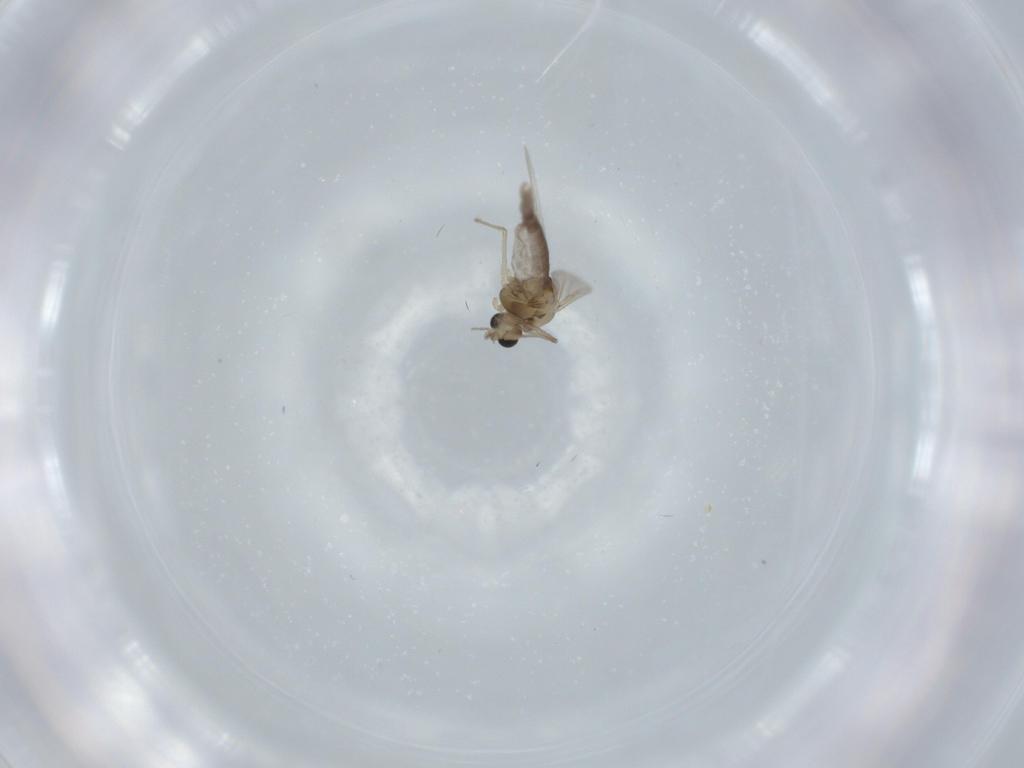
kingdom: Animalia
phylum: Arthropoda
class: Insecta
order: Diptera
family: Chironomidae
